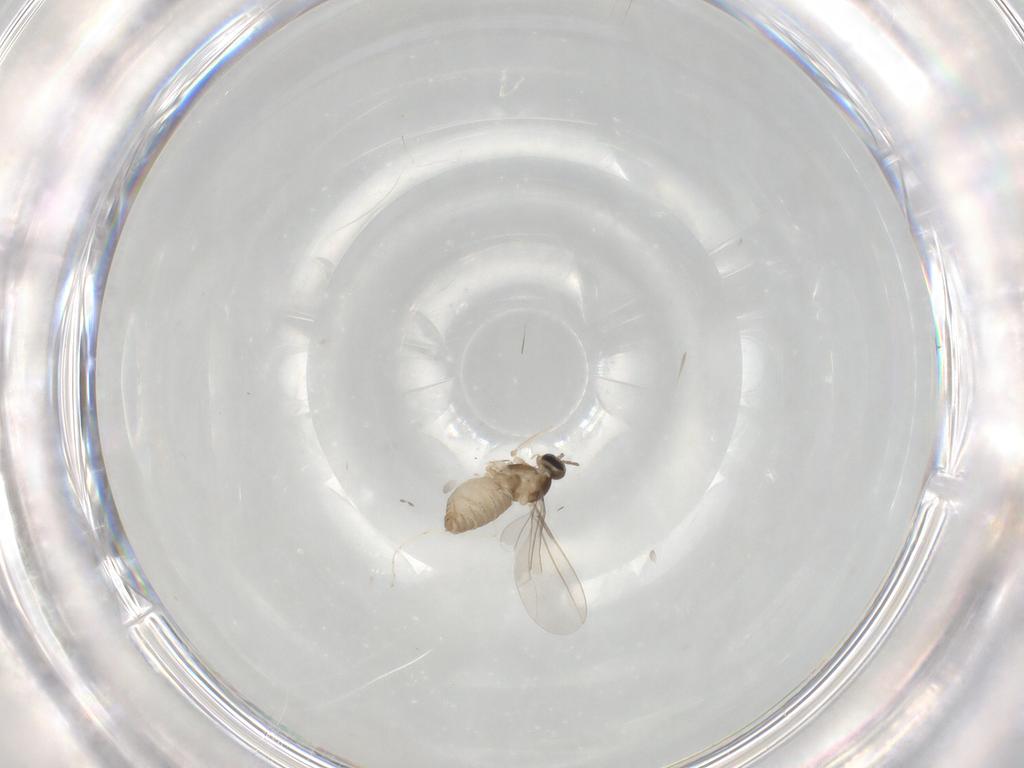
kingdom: Animalia
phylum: Arthropoda
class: Insecta
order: Diptera
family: Cecidomyiidae
